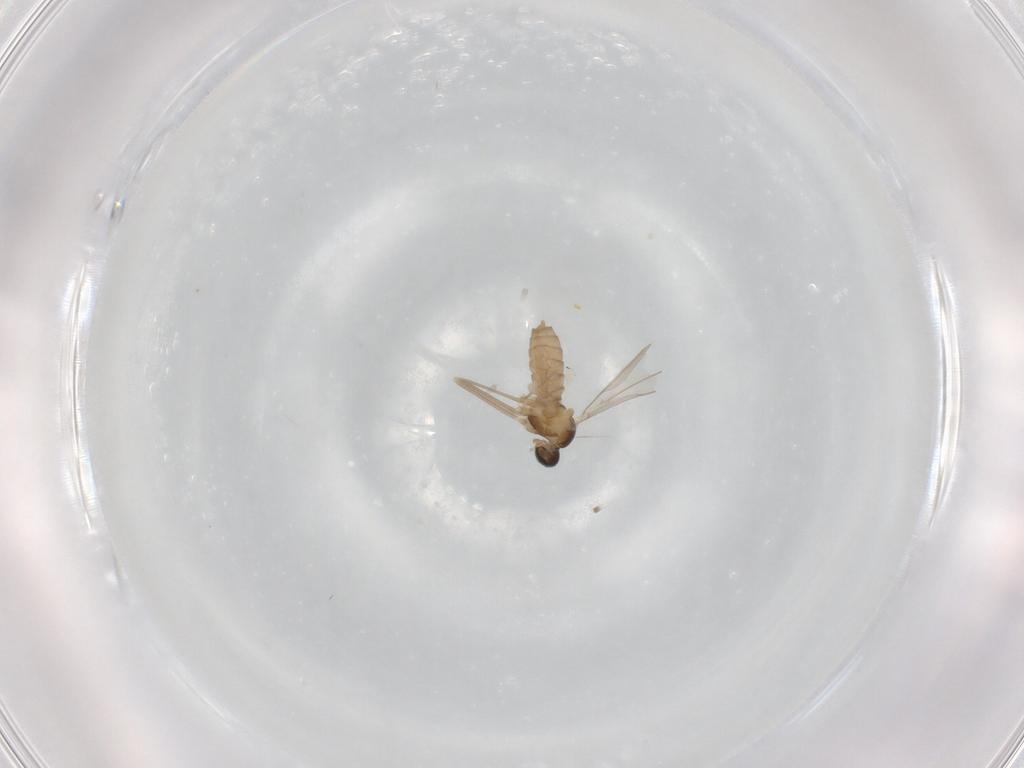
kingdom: Animalia
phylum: Arthropoda
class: Insecta
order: Diptera
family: Cecidomyiidae
